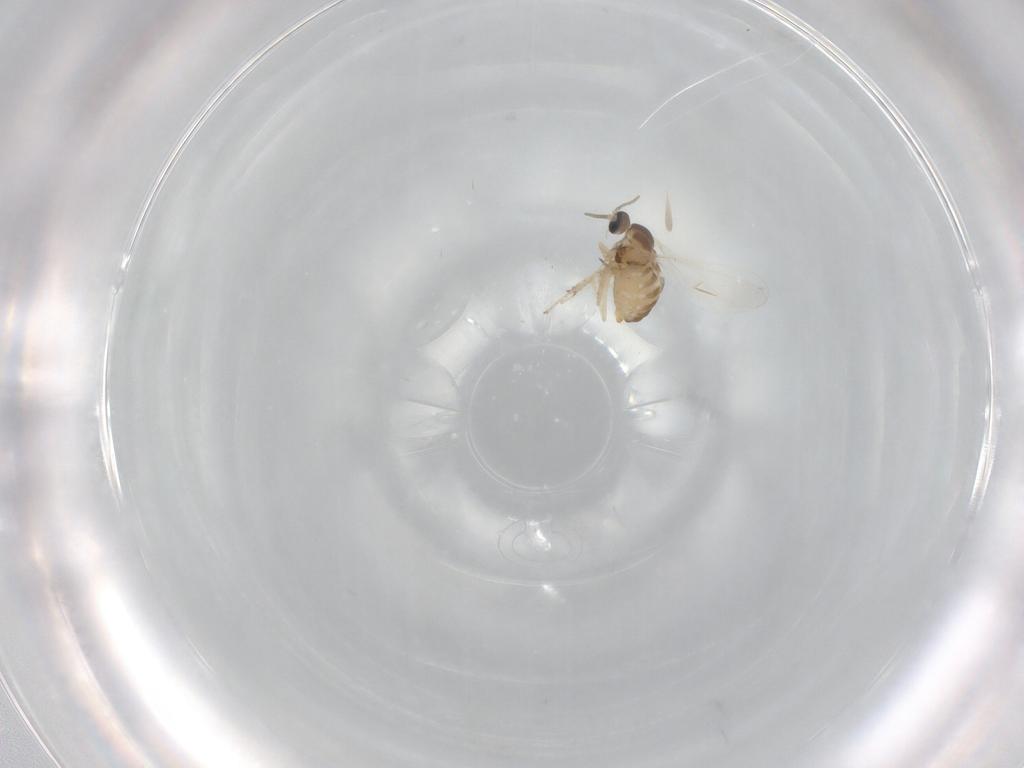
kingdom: Animalia
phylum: Arthropoda
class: Insecta
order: Diptera
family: Cecidomyiidae
